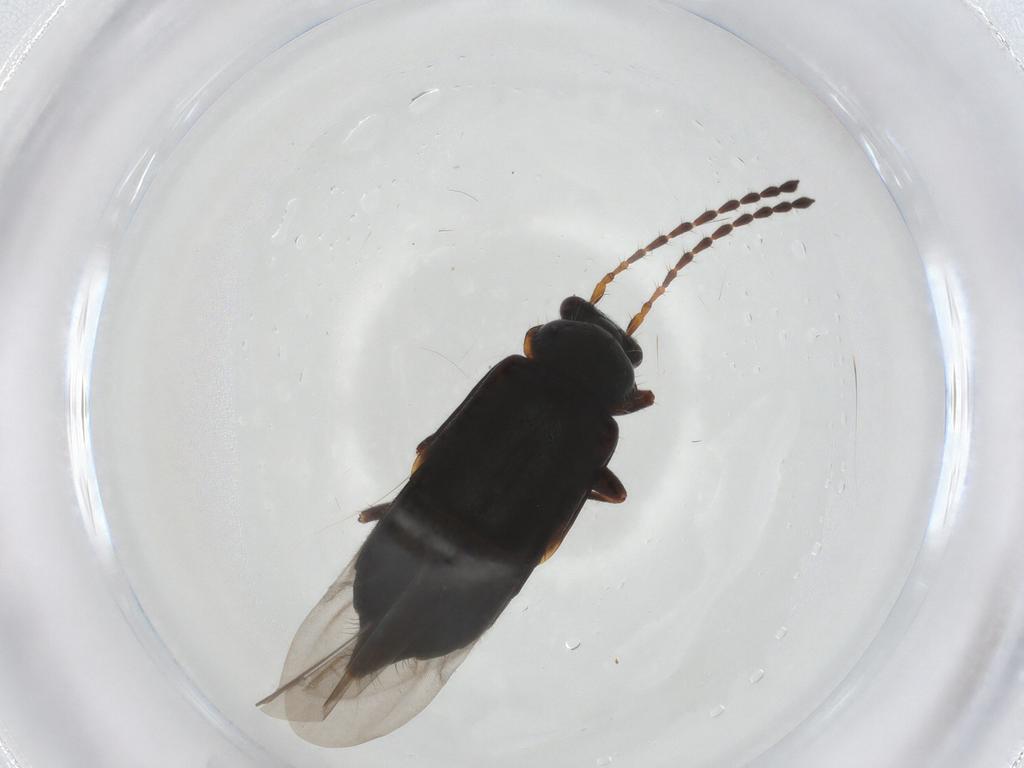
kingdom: Animalia
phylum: Arthropoda
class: Insecta
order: Coleoptera
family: Staphylinidae
